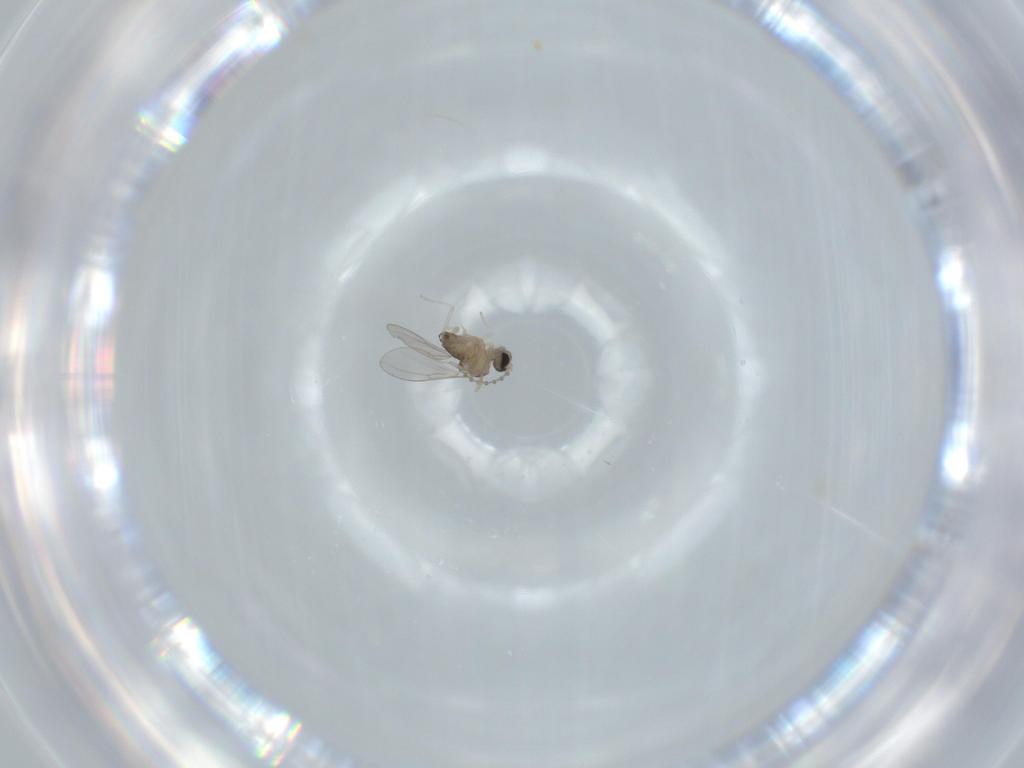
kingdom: Animalia
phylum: Arthropoda
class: Insecta
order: Diptera
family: Cecidomyiidae
